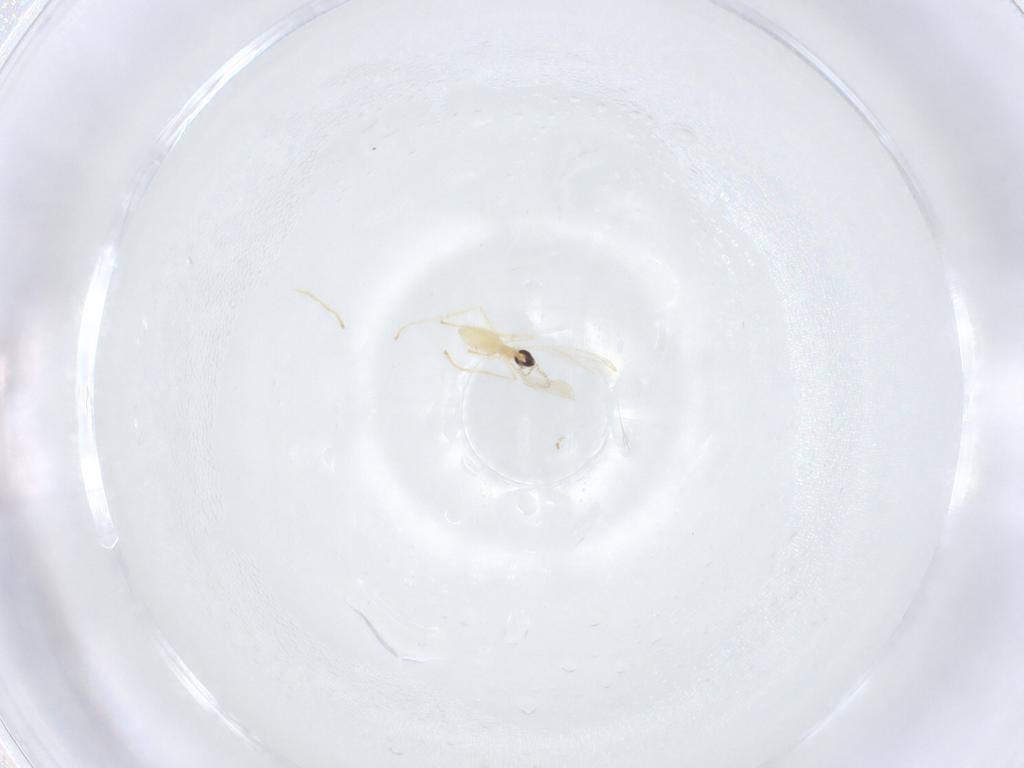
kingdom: Animalia
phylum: Arthropoda
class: Insecta
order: Diptera
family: Cecidomyiidae
